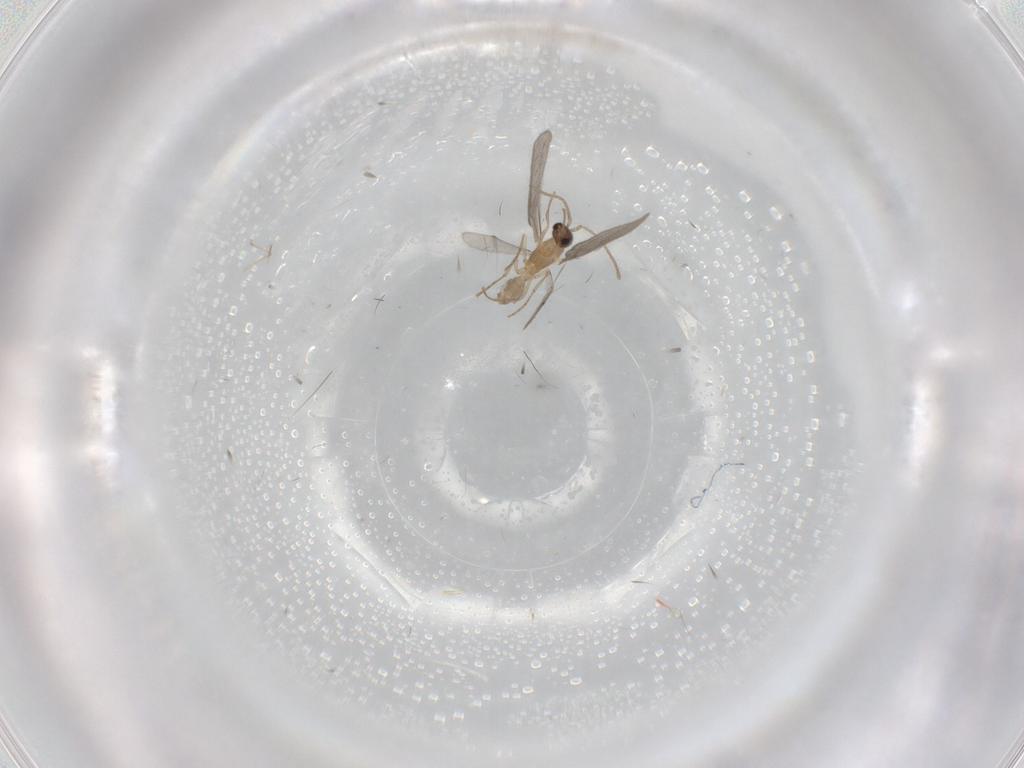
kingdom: Animalia
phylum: Arthropoda
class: Insecta
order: Hymenoptera
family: Formicidae
